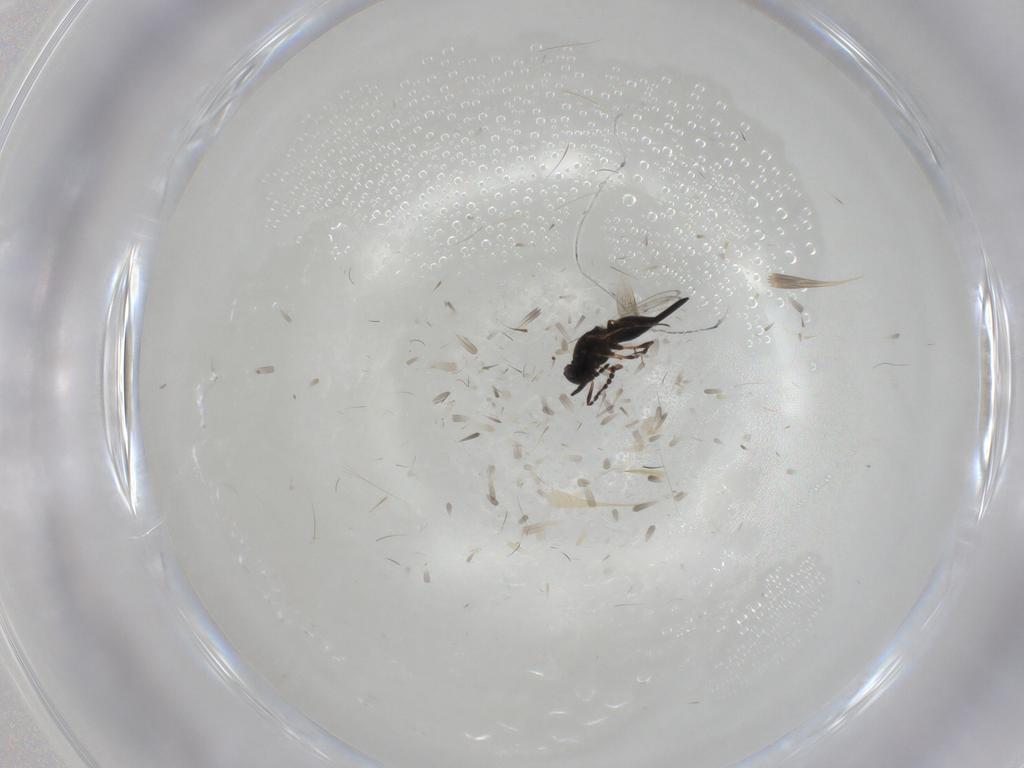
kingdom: Animalia
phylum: Arthropoda
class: Insecta
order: Hymenoptera
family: Platygastridae
